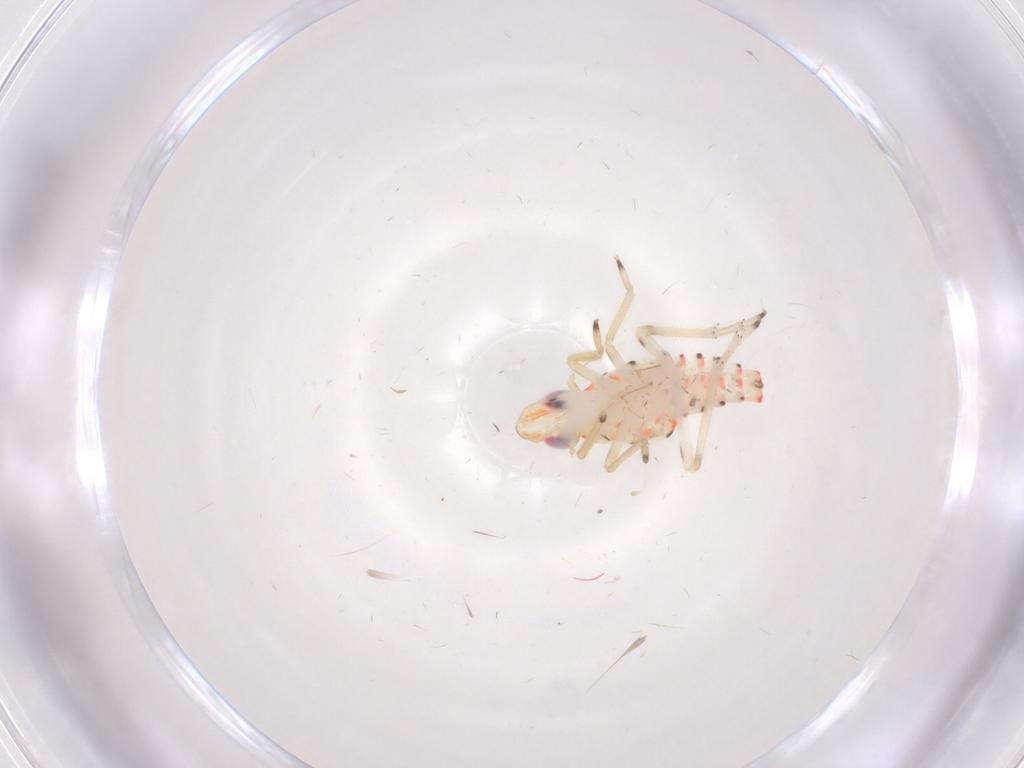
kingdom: Animalia
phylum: Arthropoda
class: Insecta
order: Hemiptera
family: Tropiduchidae
